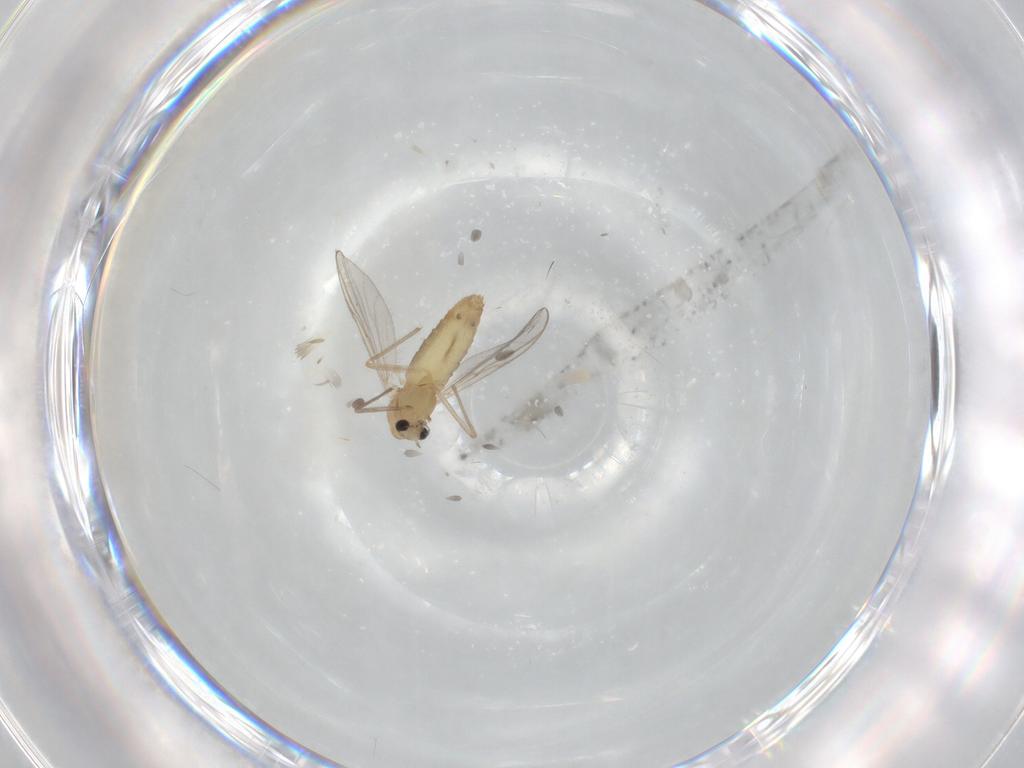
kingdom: Animalia
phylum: Arthropoda
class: Insecta
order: Diptera
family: Chironomidae
